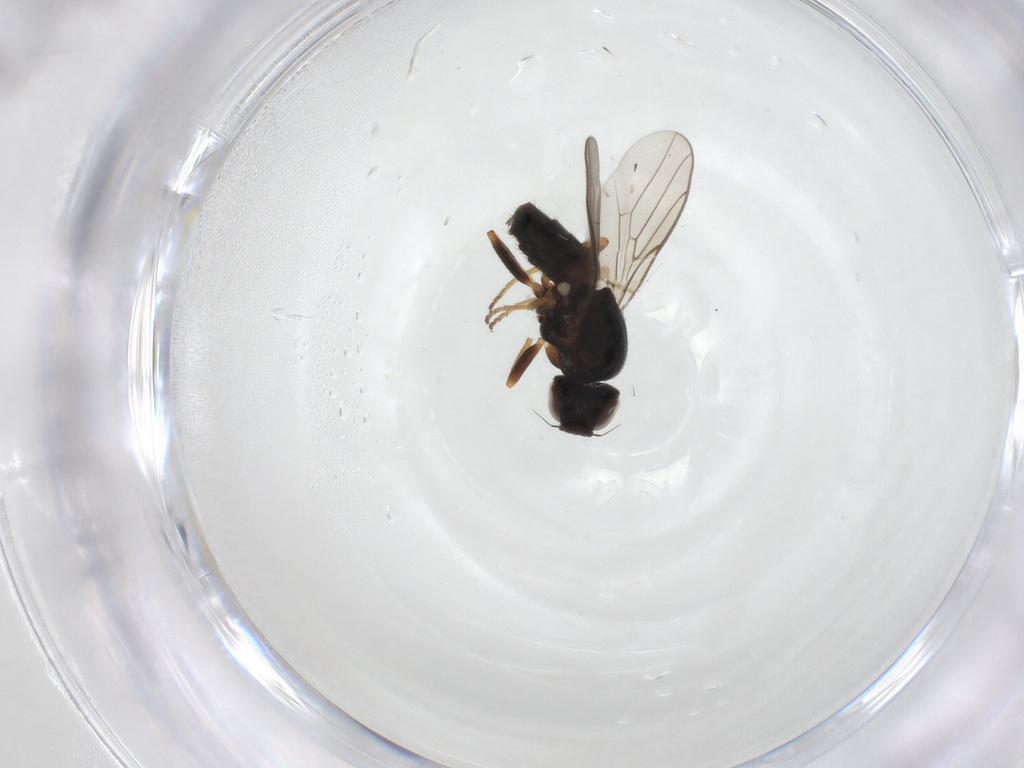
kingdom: Animalia
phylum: Arthropoda
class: Insecta
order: Diptera
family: Chloropidae
